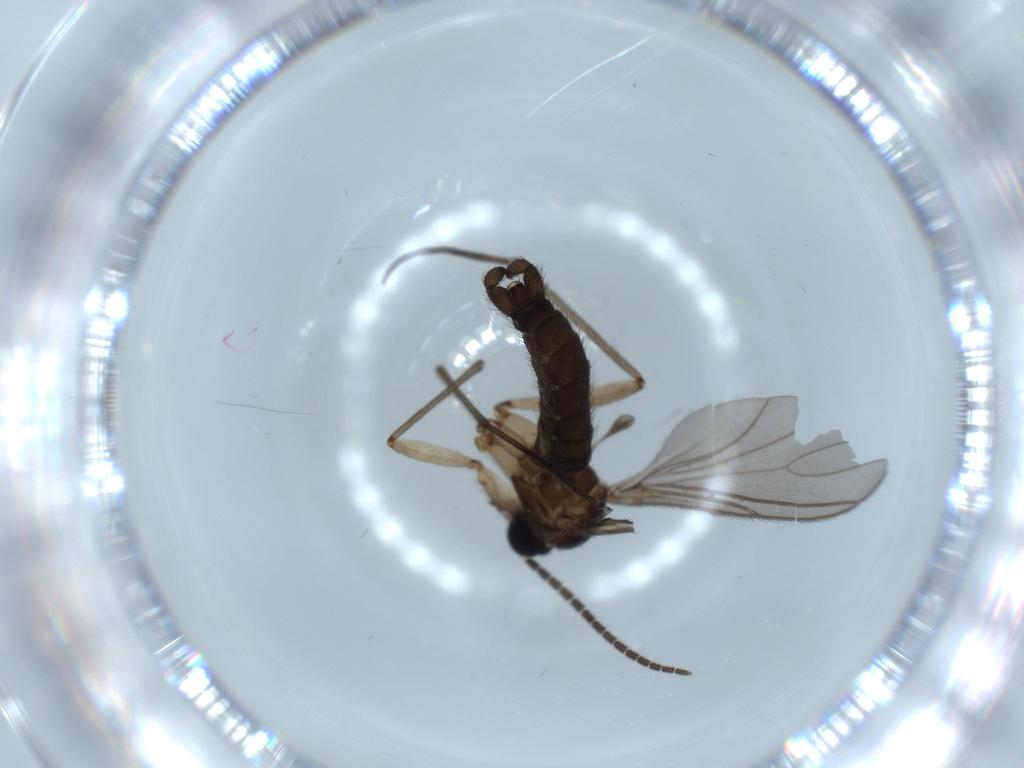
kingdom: Animalia
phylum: Arthropoda
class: Insecta
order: Diptera
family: Sciaridae
